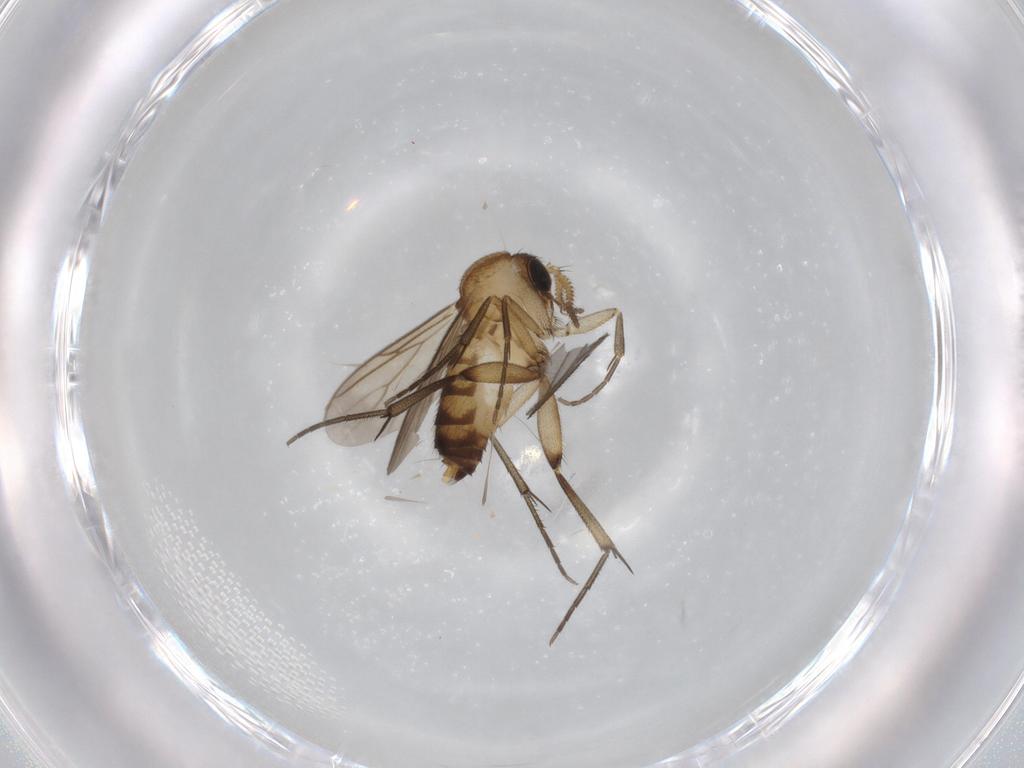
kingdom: Animalia
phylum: Arthropoda
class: Insecta
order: Diptera
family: Mycetophilidae
